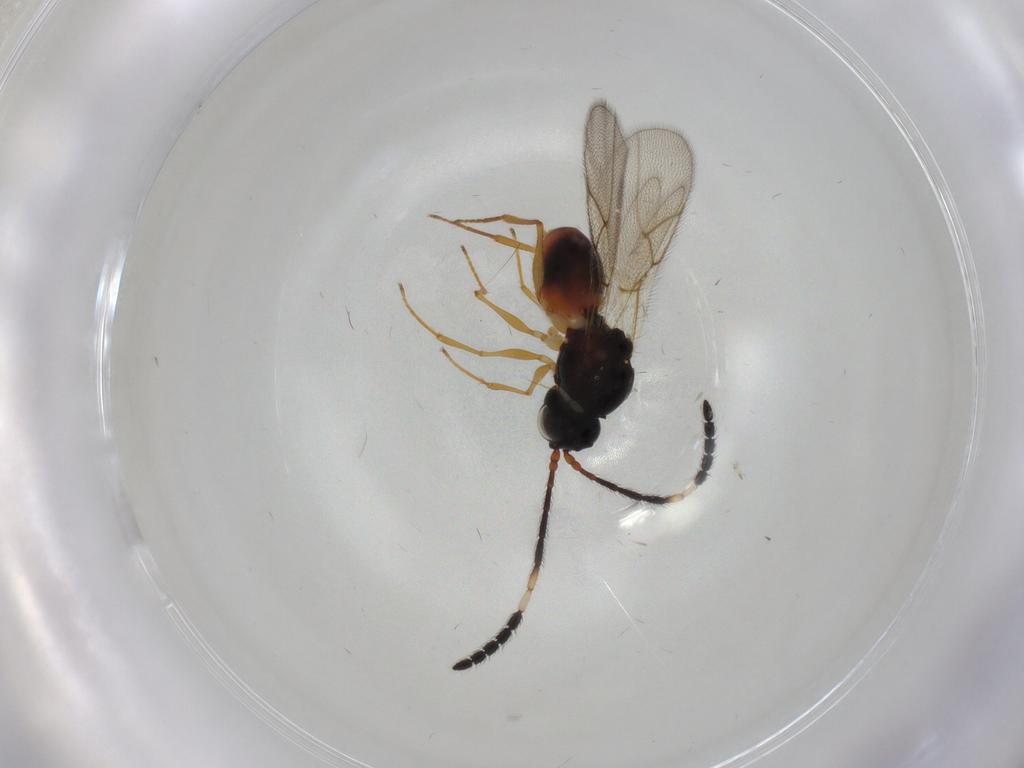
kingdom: Animalia
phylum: Arthropoda
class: Insecta
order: Hymenoptera
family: Figitidae
